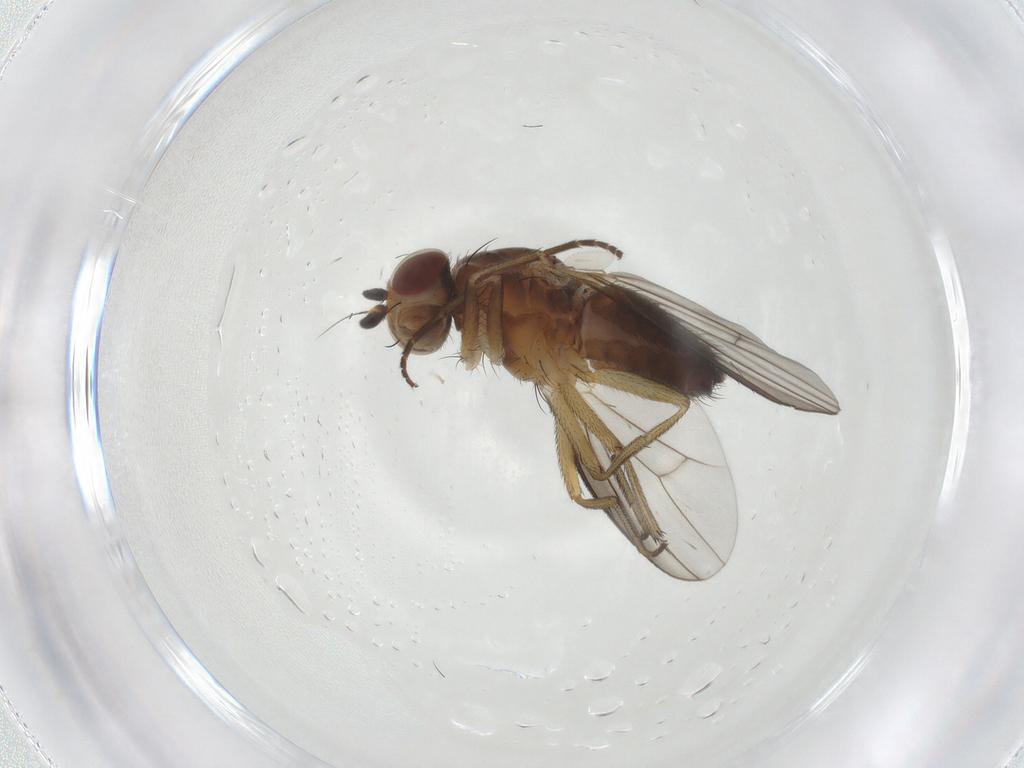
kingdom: Animalia
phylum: Arthropoda
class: Insecta
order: Diptera
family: Heleomyzidae
